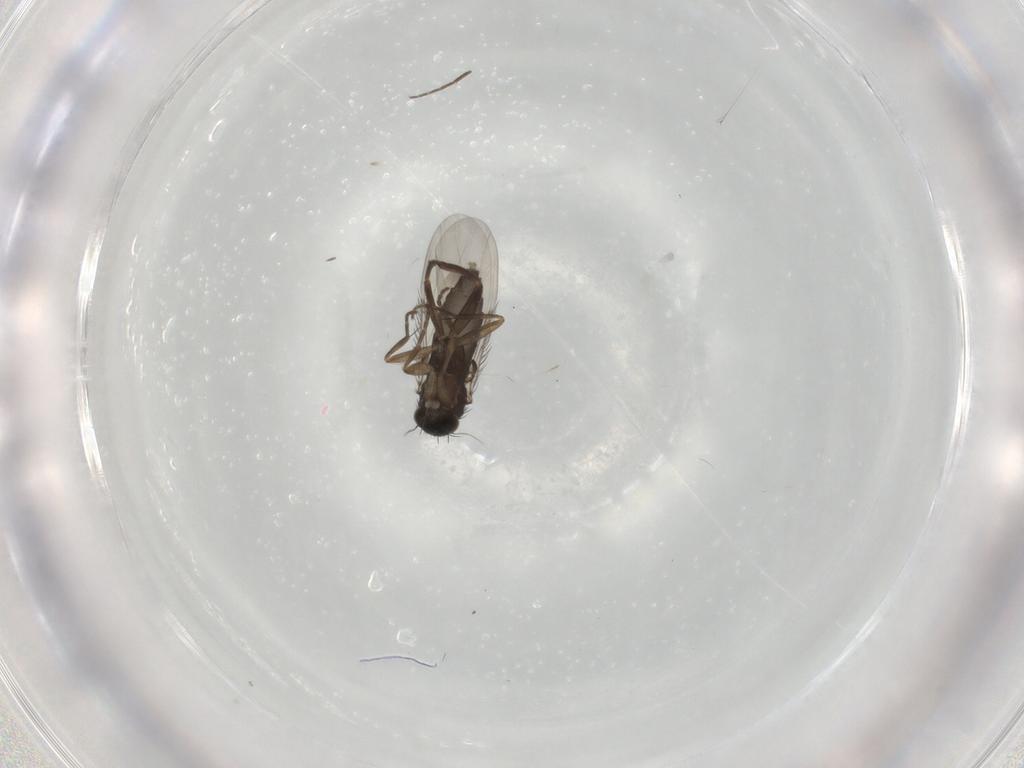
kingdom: Animalia
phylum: Arthropoda
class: Insecta
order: Diptera
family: Phoridae
